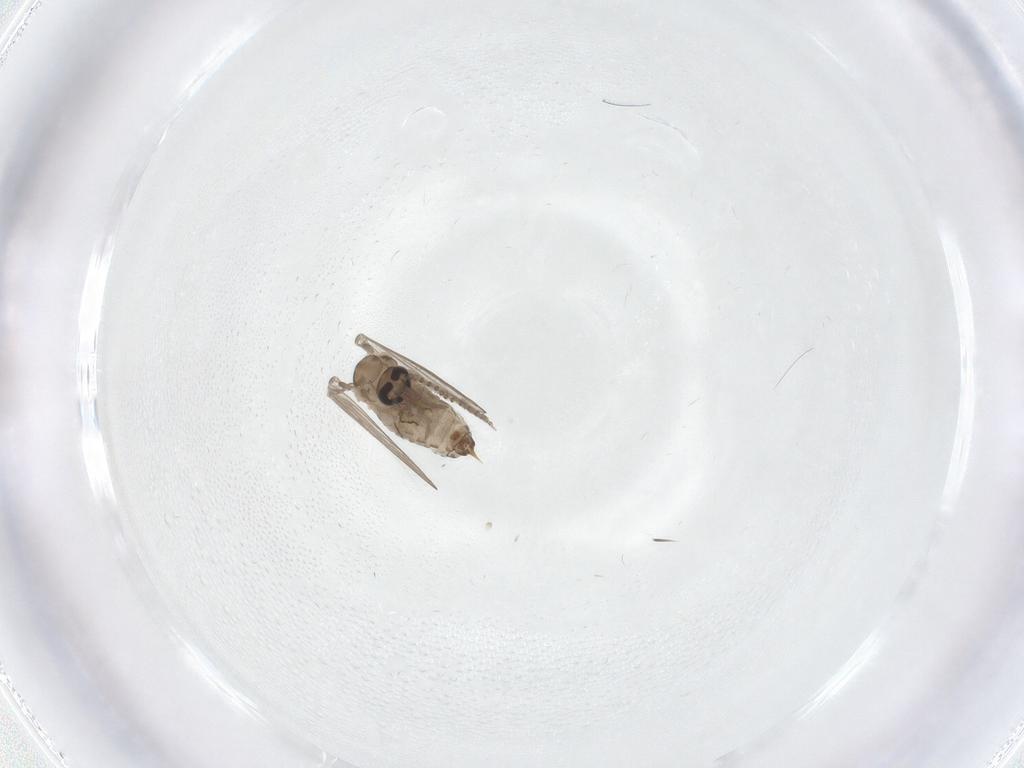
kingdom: Animalia
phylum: Arthropoda
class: Insecta
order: Diptera
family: Psychodidae
